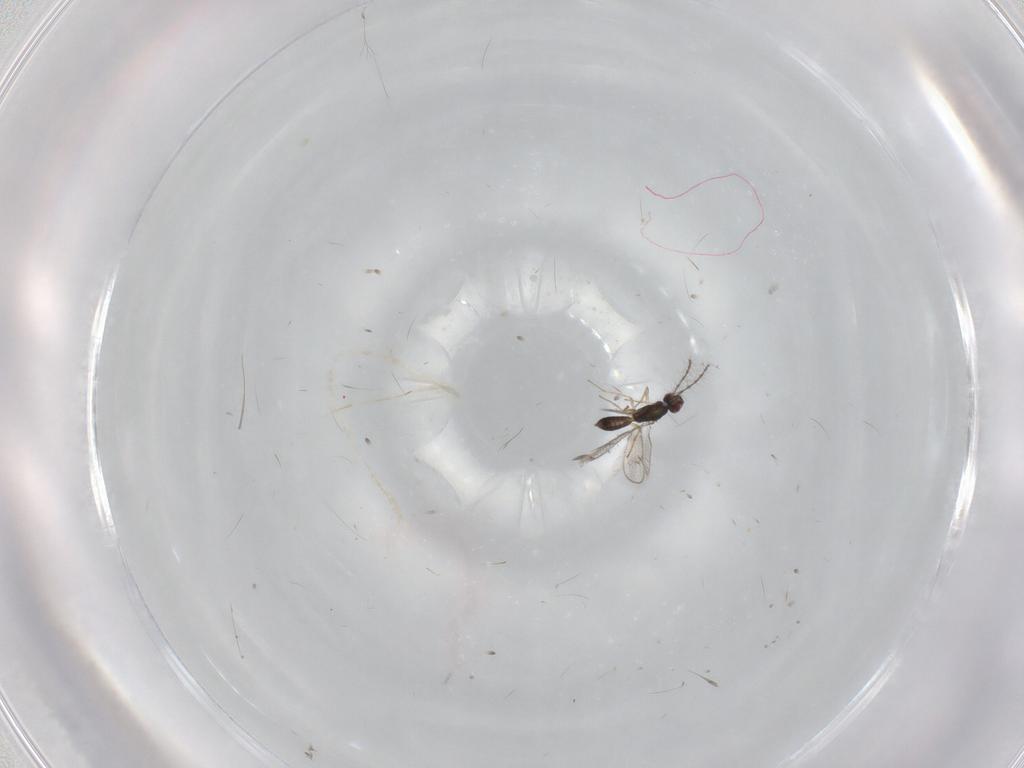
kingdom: Animalia
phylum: Arthropoda
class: Insecta
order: Hymenoptera
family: Pteromalidae
